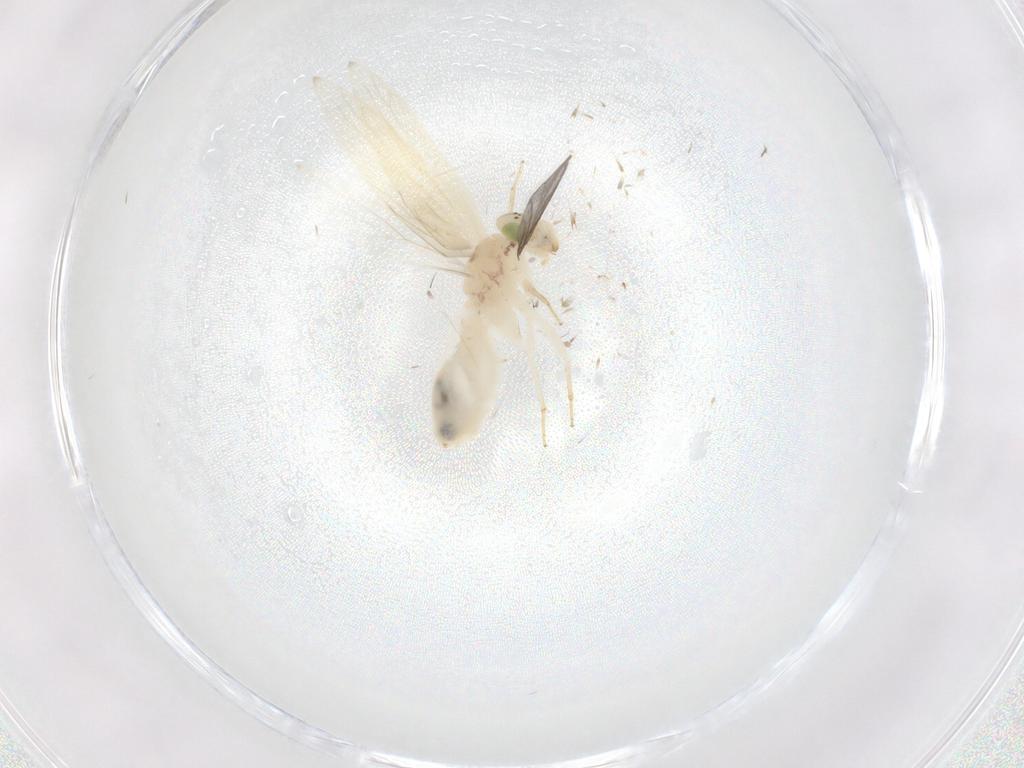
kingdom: Animalia
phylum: Arthropoda
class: Insecta
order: Psocodea
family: Lepidopsocidae
